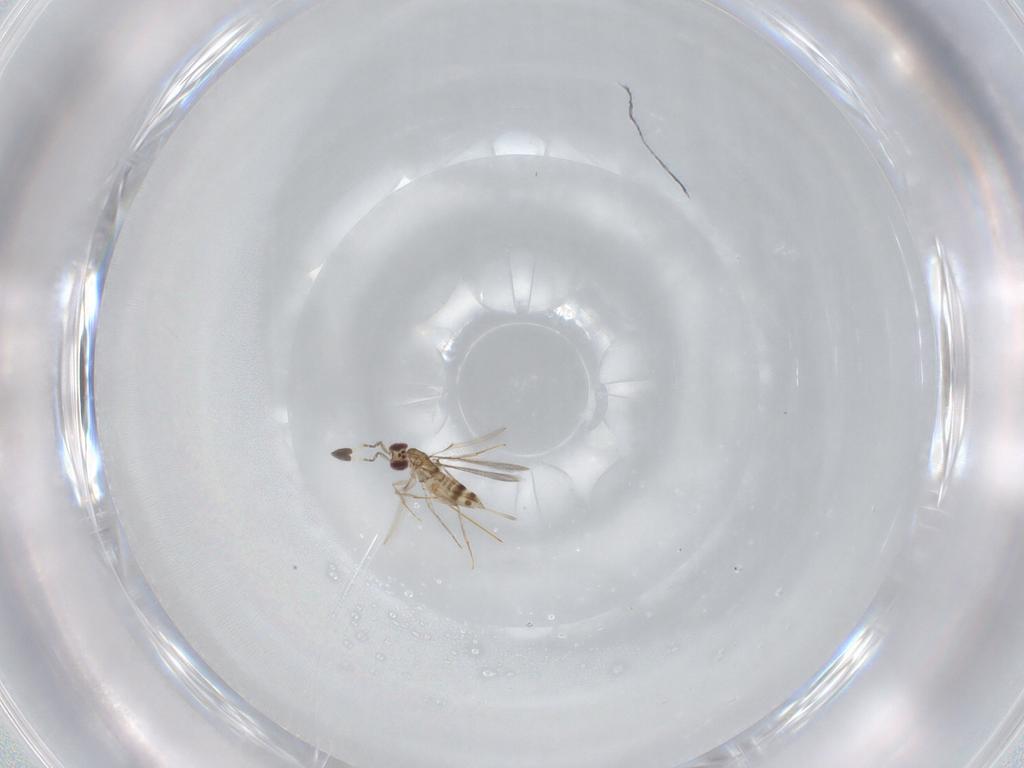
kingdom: Animalia
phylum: Arthropoda
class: Insecta
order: Hymenoptera
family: Mymaridae
